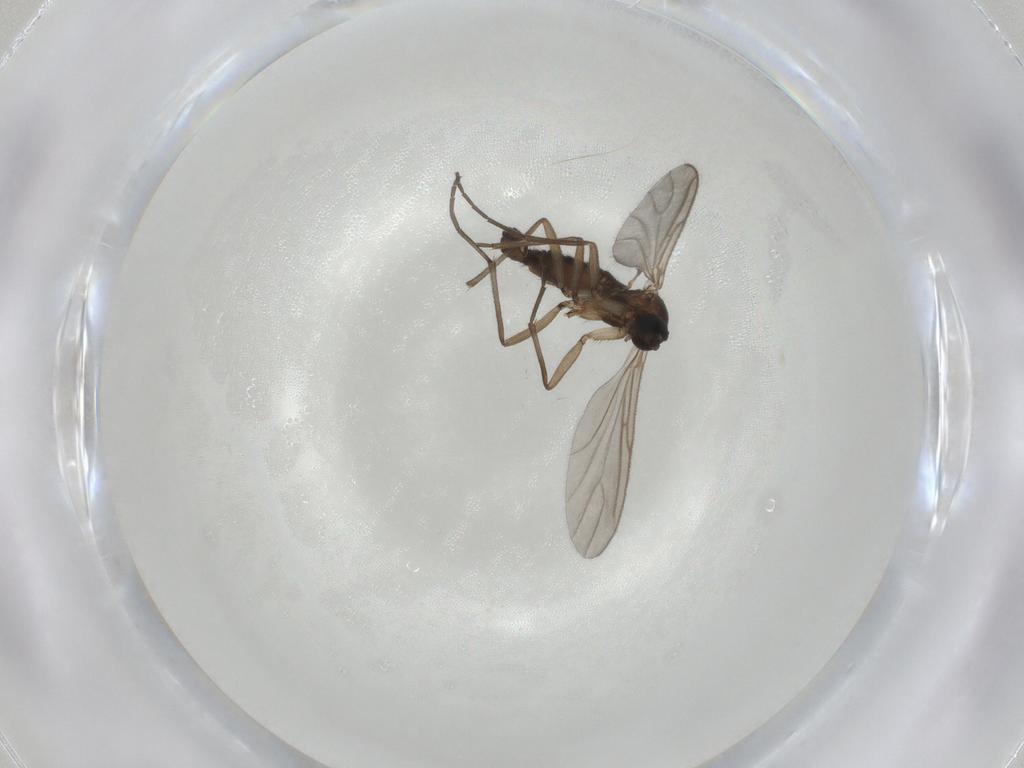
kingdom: Animalia
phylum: Arthropoda
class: Insecta
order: Diptera
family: Sciaridae
